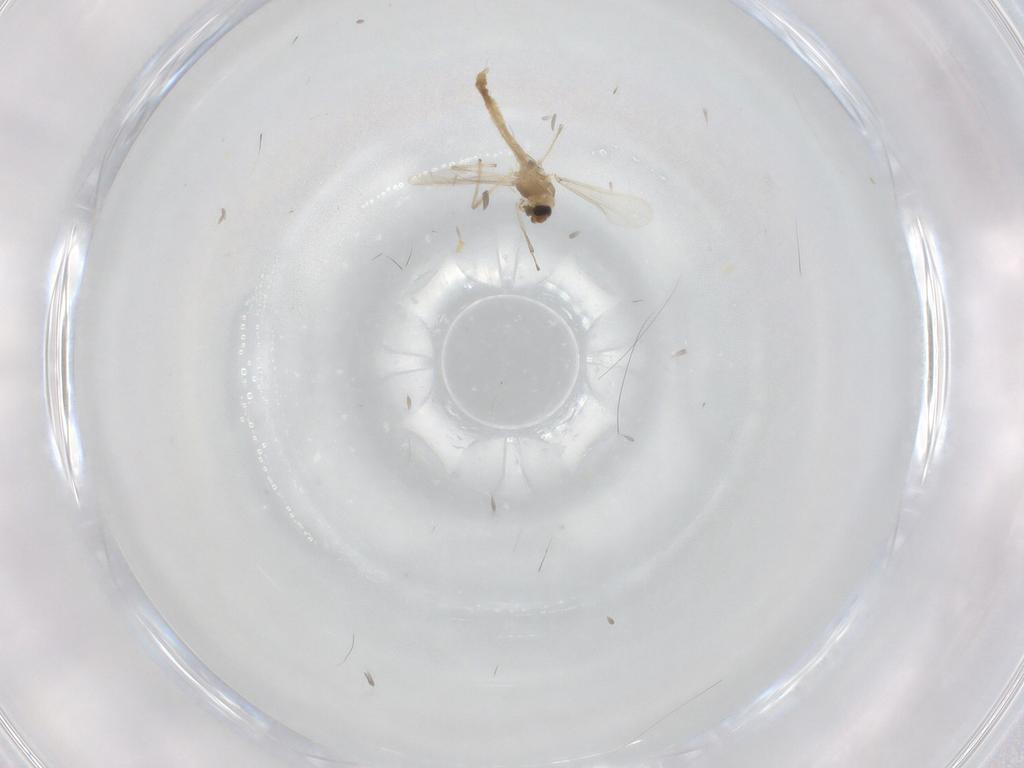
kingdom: Animalia
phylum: Arthropoda
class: Insecta
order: Diptera
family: Chironomidae
